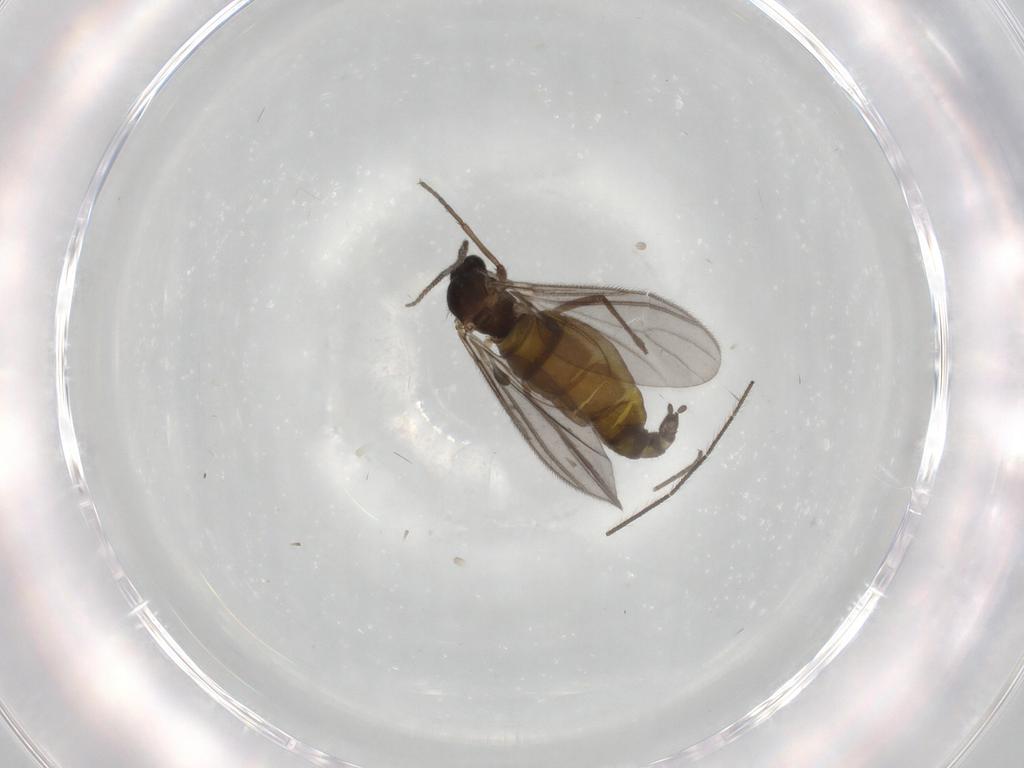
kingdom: Animalia
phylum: Arthropoda
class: Insecta
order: Diptera
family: Sciaridae
